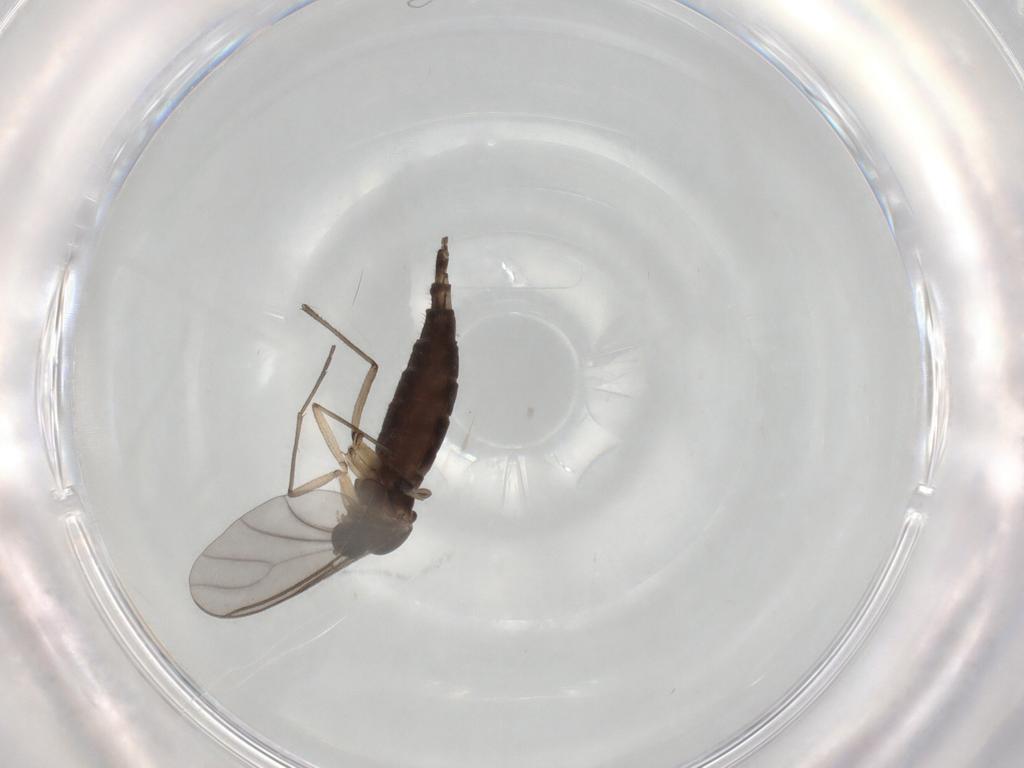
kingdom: Animalia
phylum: Arthropoda
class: Insecta
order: Diptera
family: Sciaridae
